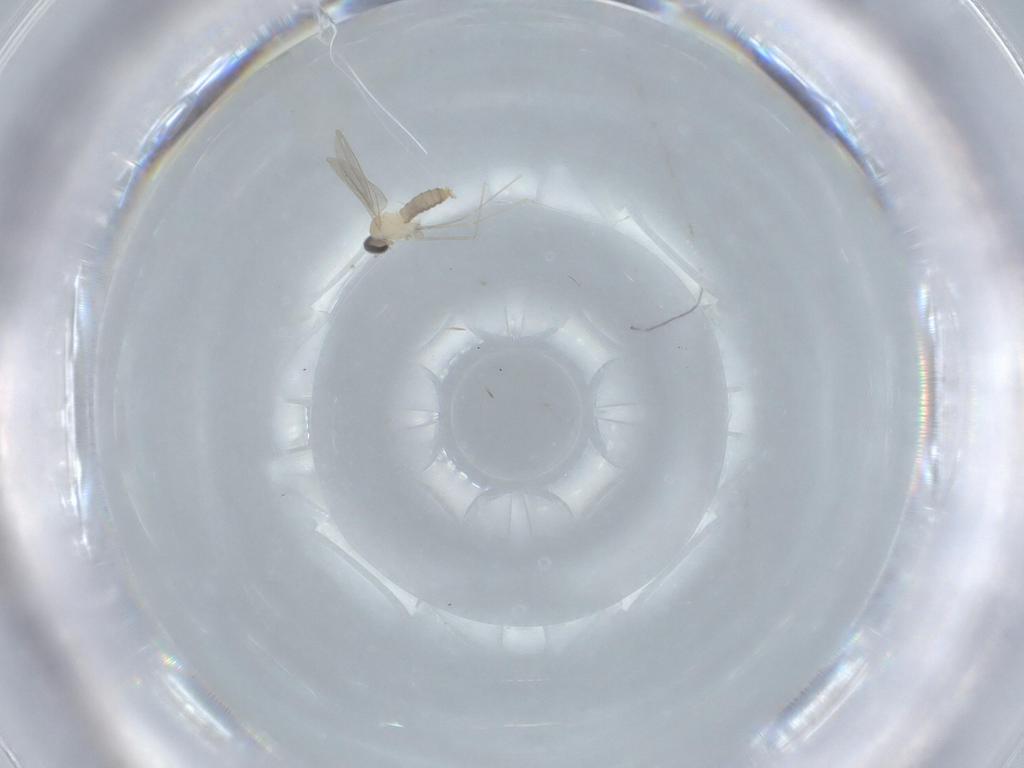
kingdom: Animalia
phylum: Arthropoda
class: Insecta
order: Diptera
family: Cecidomyiidae
